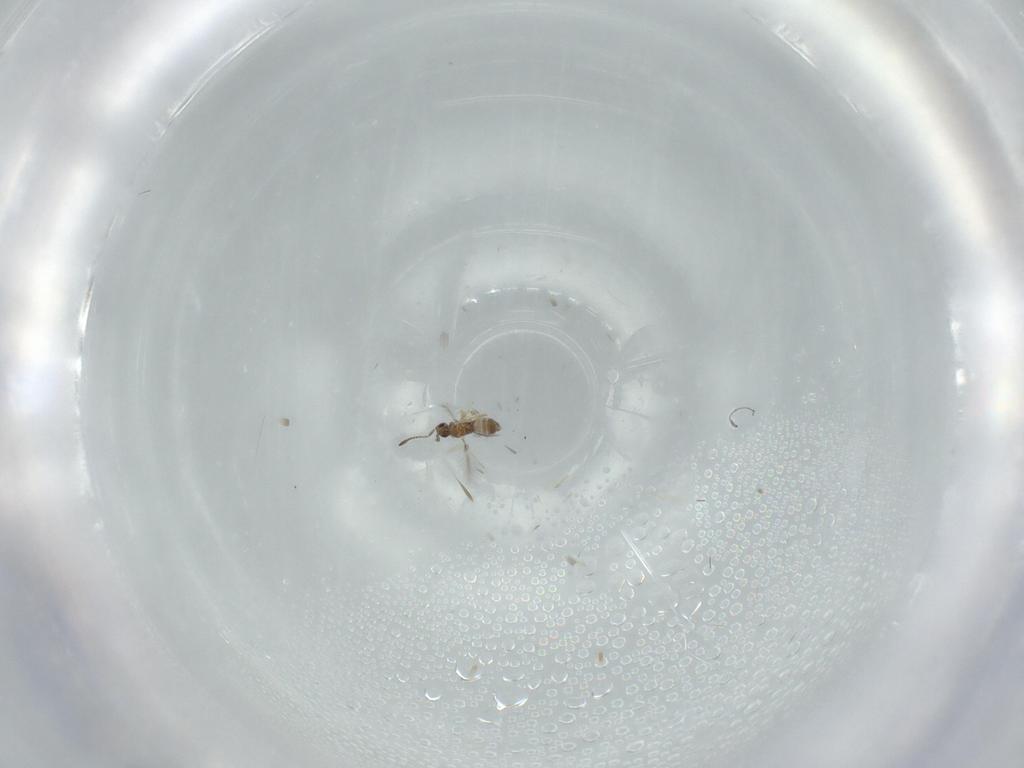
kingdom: Animalia
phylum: Arthropoda
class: Insecta
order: Hymenoptera
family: Mymaridae
